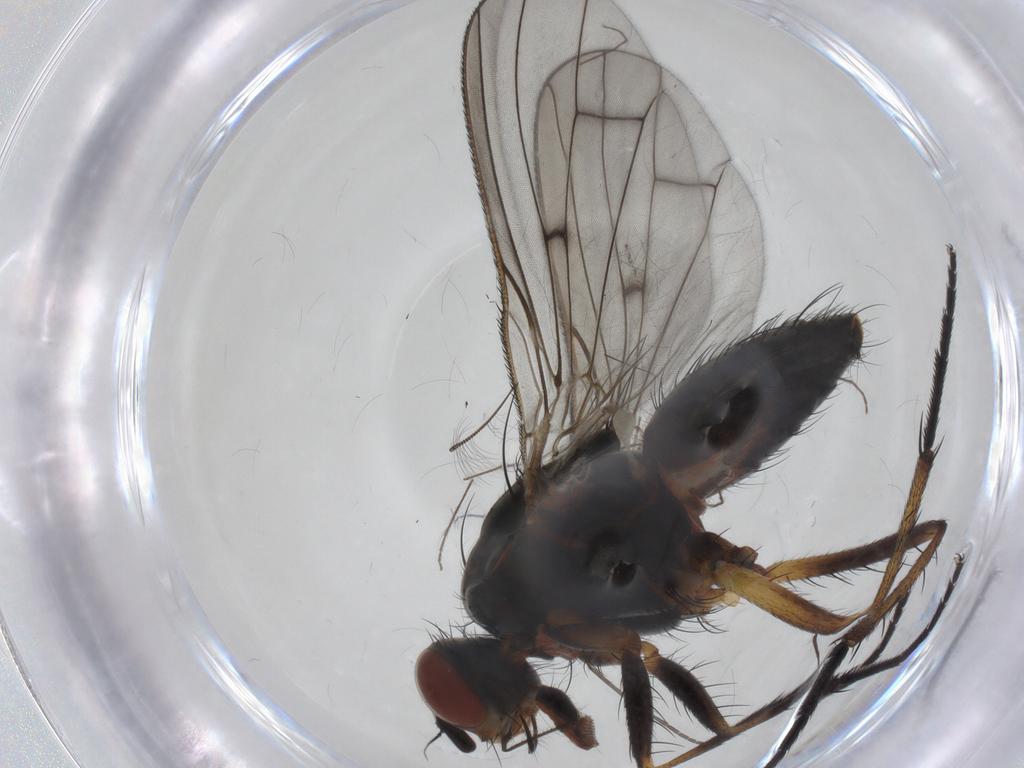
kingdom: Animalia
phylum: Arthropoda
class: Insecta
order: Diptera
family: Anthomyiidae
